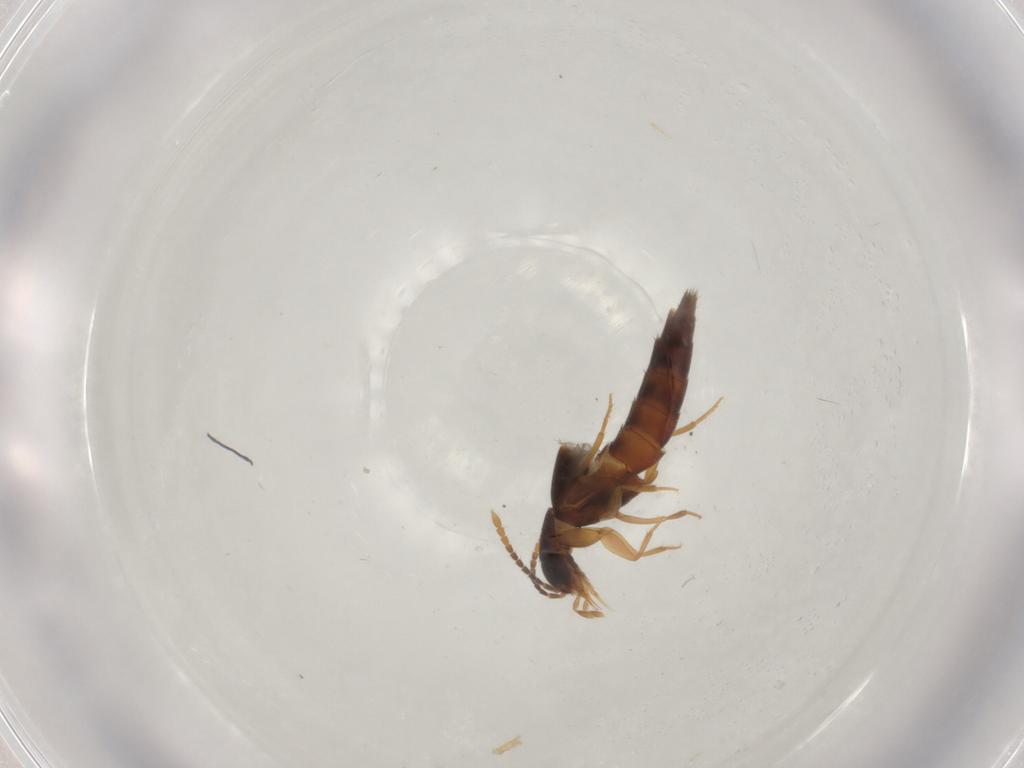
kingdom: Animalia
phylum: Arthropoda
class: Insecta
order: Coleoptera
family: Staphylinidae
